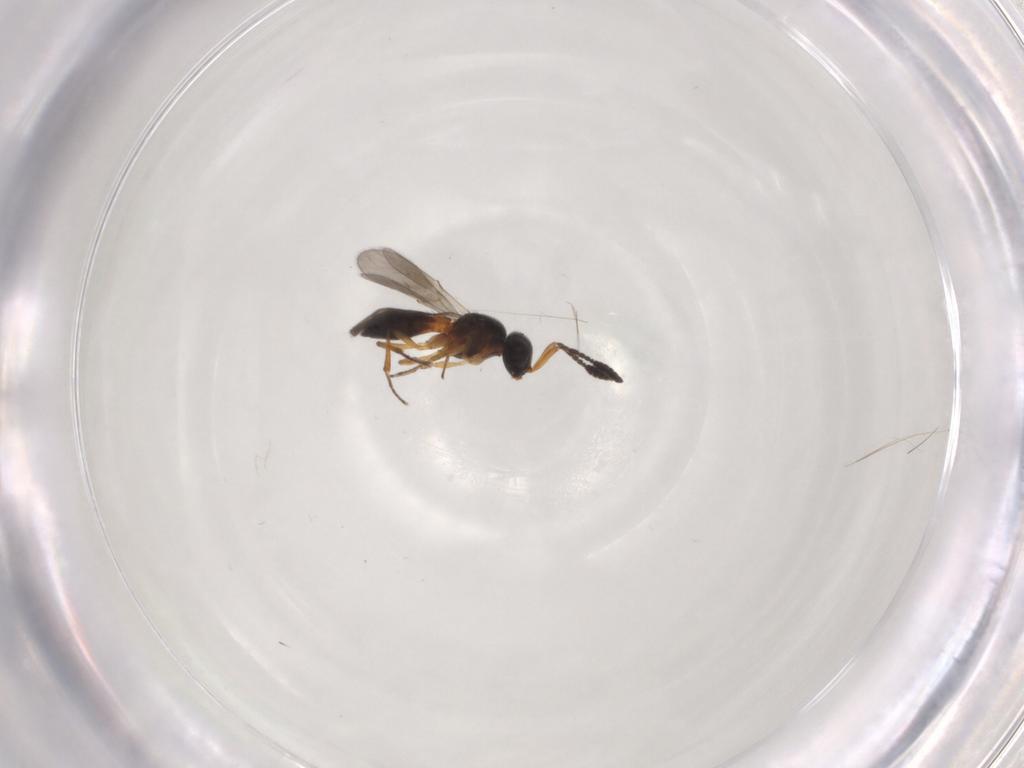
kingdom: Animalia
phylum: Arthropoda
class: Insecta
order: Hymenoptera
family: Scelionidae
